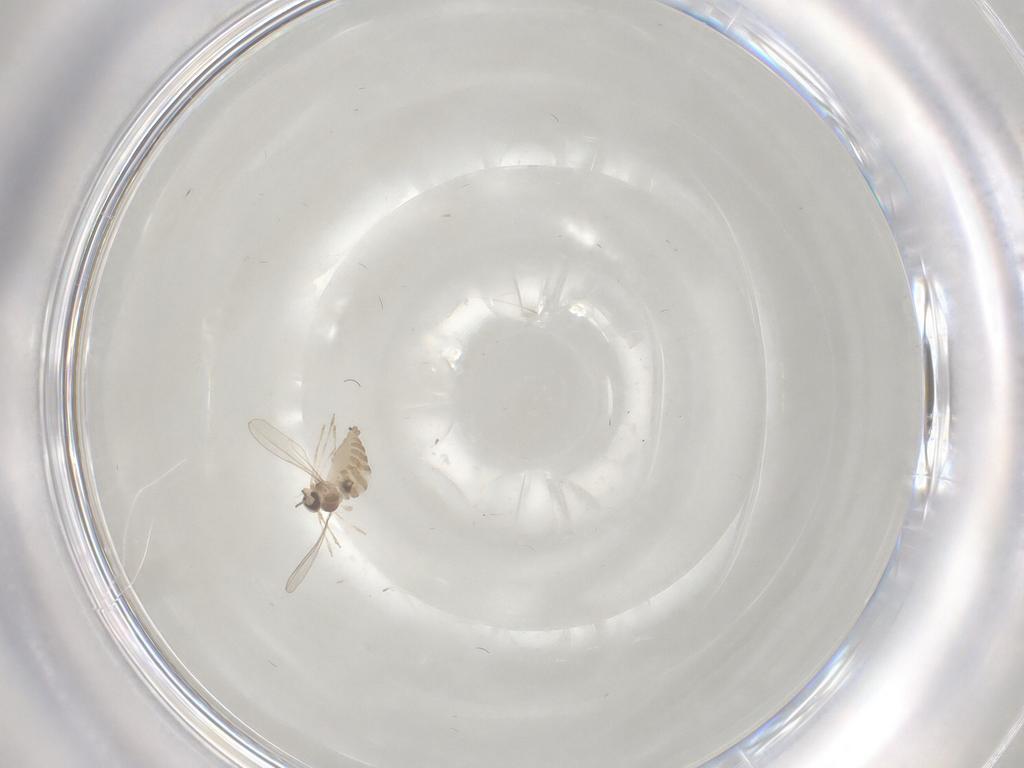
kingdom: Animalia
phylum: Arthropoda
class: Insecta
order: Diptera
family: Cecidomyiidae
